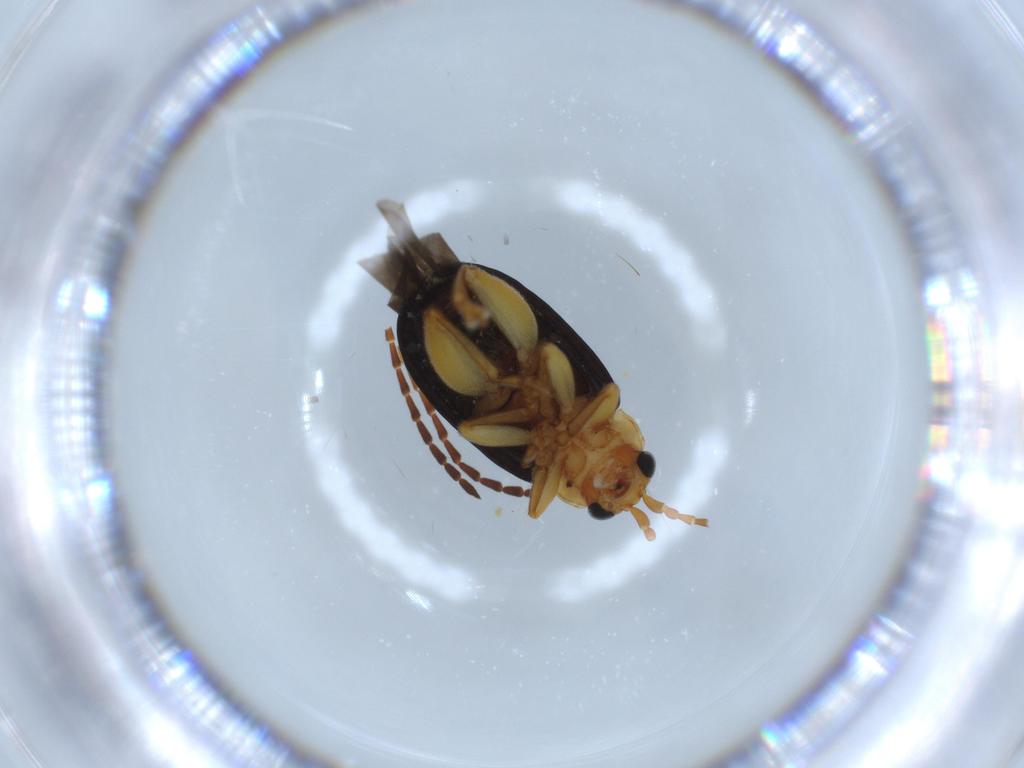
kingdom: Animalia
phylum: Arthropoda
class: Insecta
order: Coleoptera
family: Chrysomelidae
